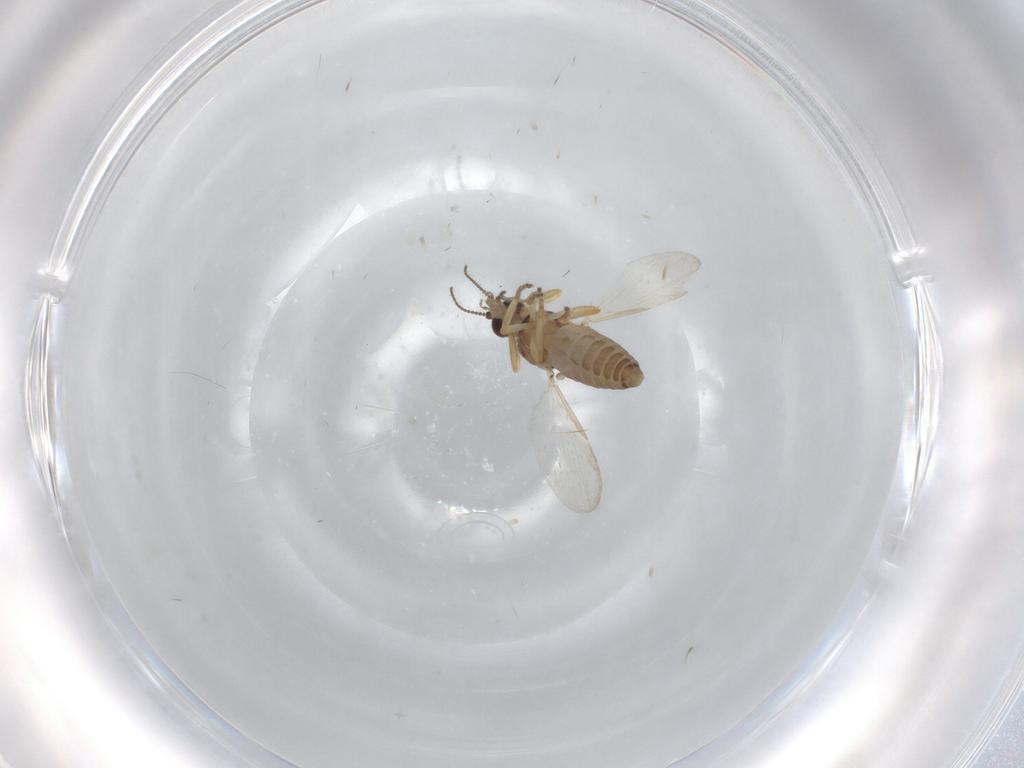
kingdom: Animalia
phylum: Arthropoda
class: Insecta
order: Diptera
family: Ceratopogonidae
